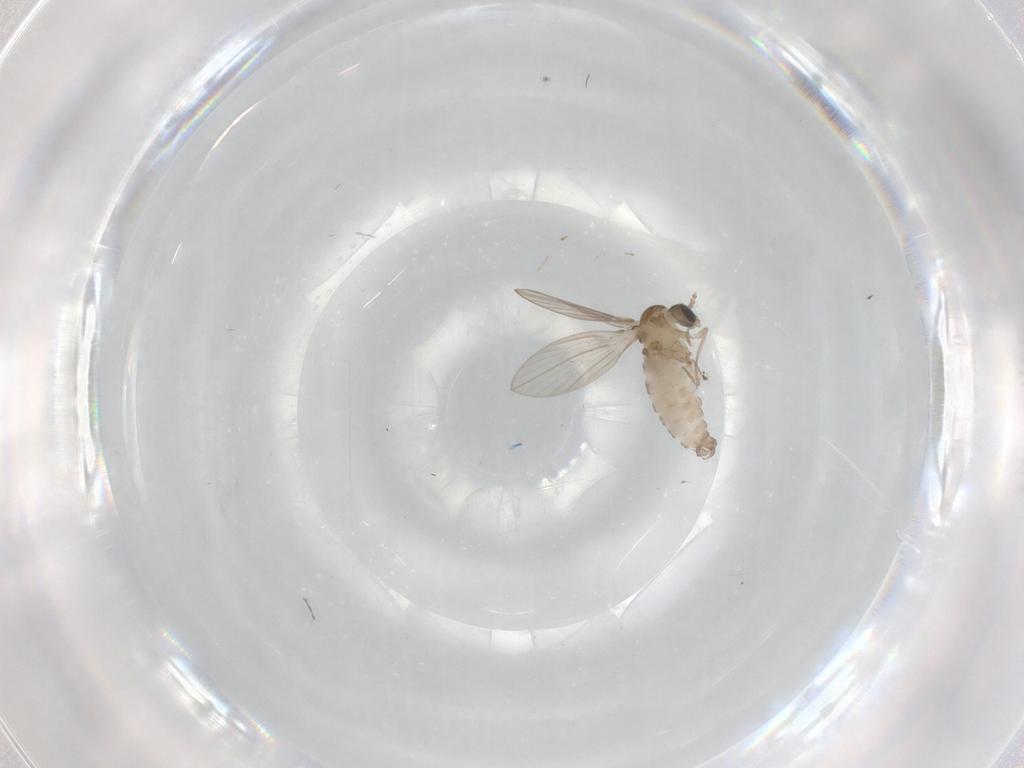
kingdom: Animalia
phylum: Arthropoda
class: Insecta
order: Diptera
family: Psychodidae
